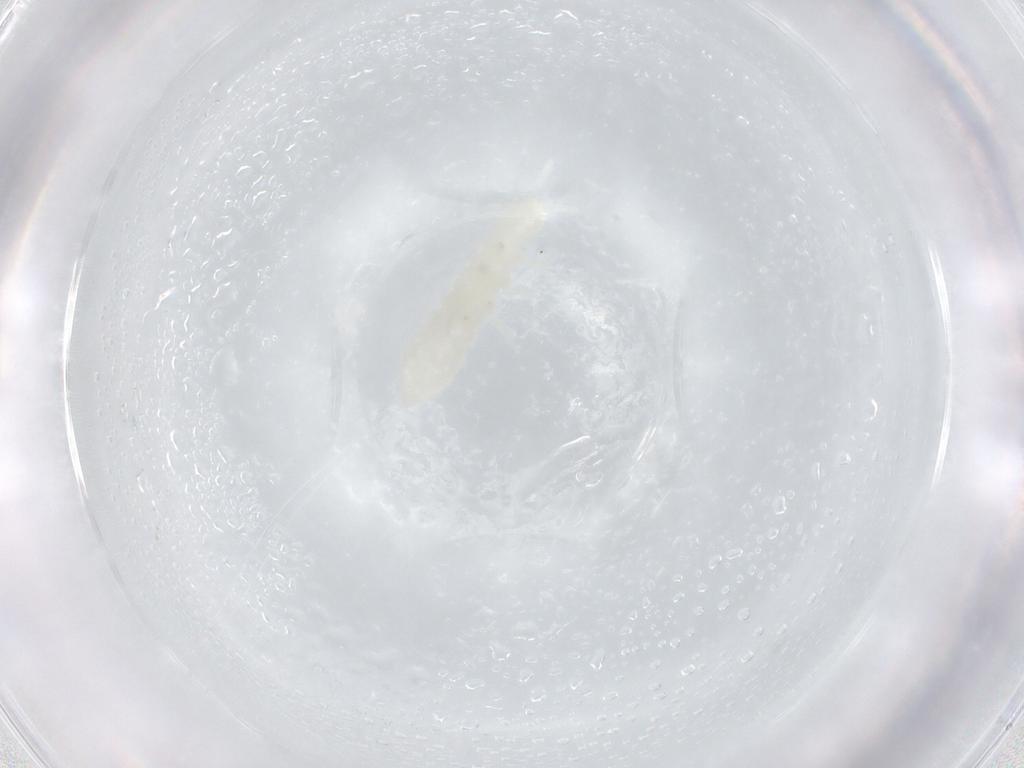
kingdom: Animalia
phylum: Arthropoda
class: Collembola
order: Poduromorpha
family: Onychiuridae
